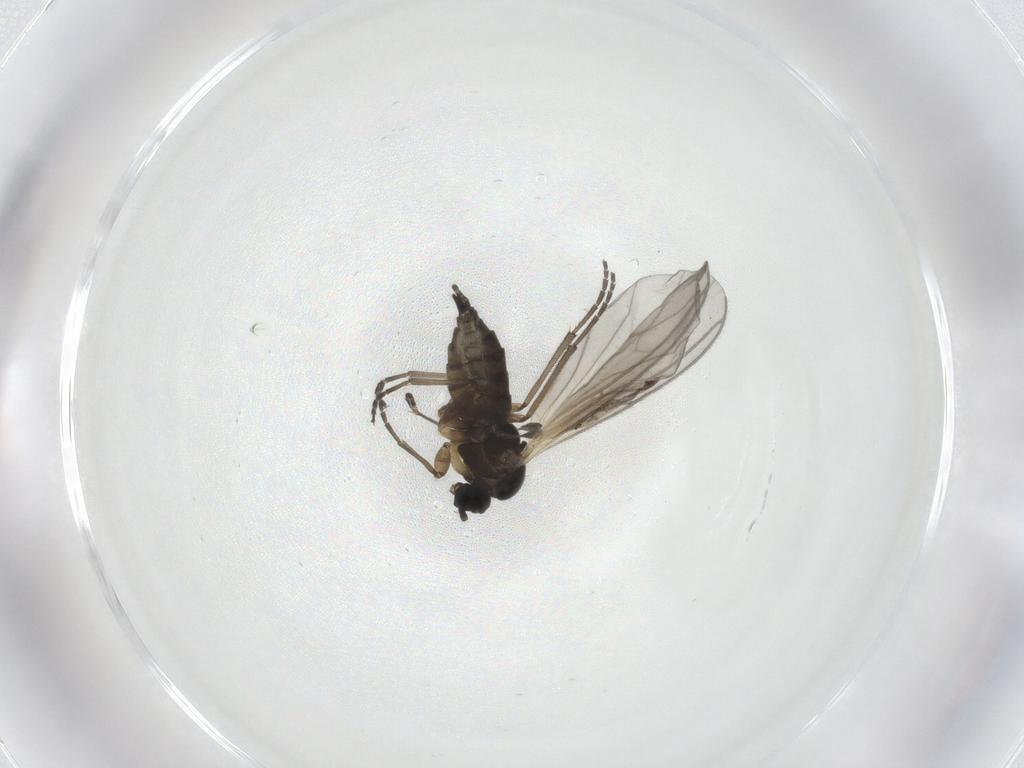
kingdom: Animalia
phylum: Arthropoda
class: Insecta
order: Diptera
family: Sciaridae
